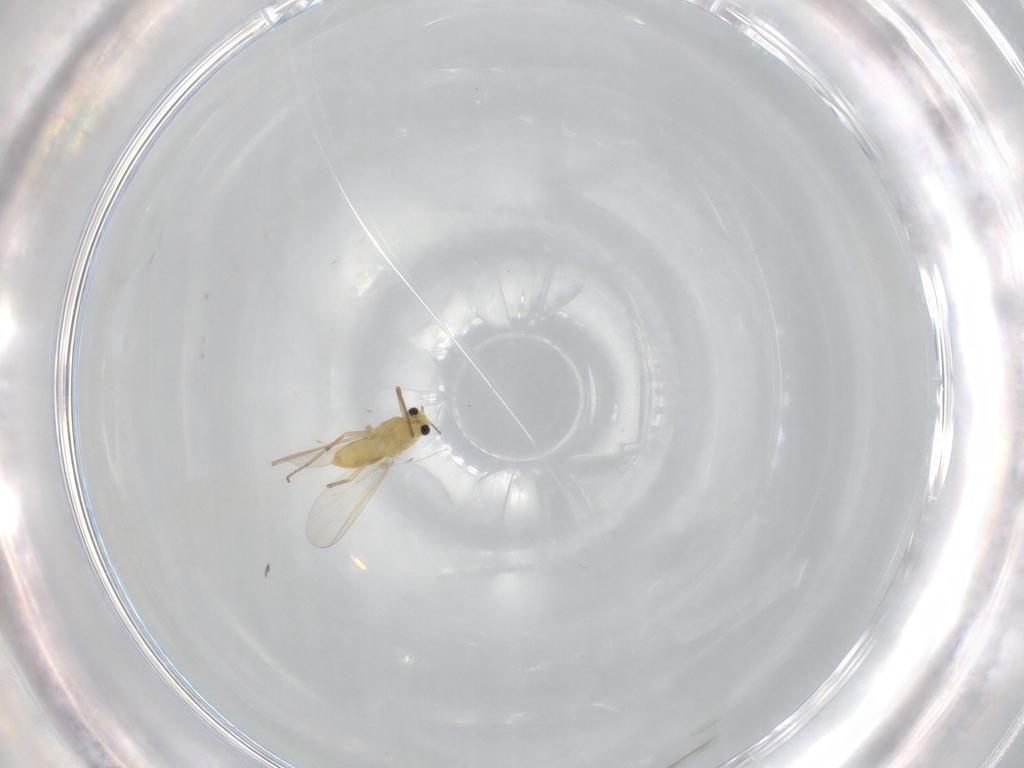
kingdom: Animalia
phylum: Arthropoda
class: Insecta
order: Diptera
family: Chironomidae
